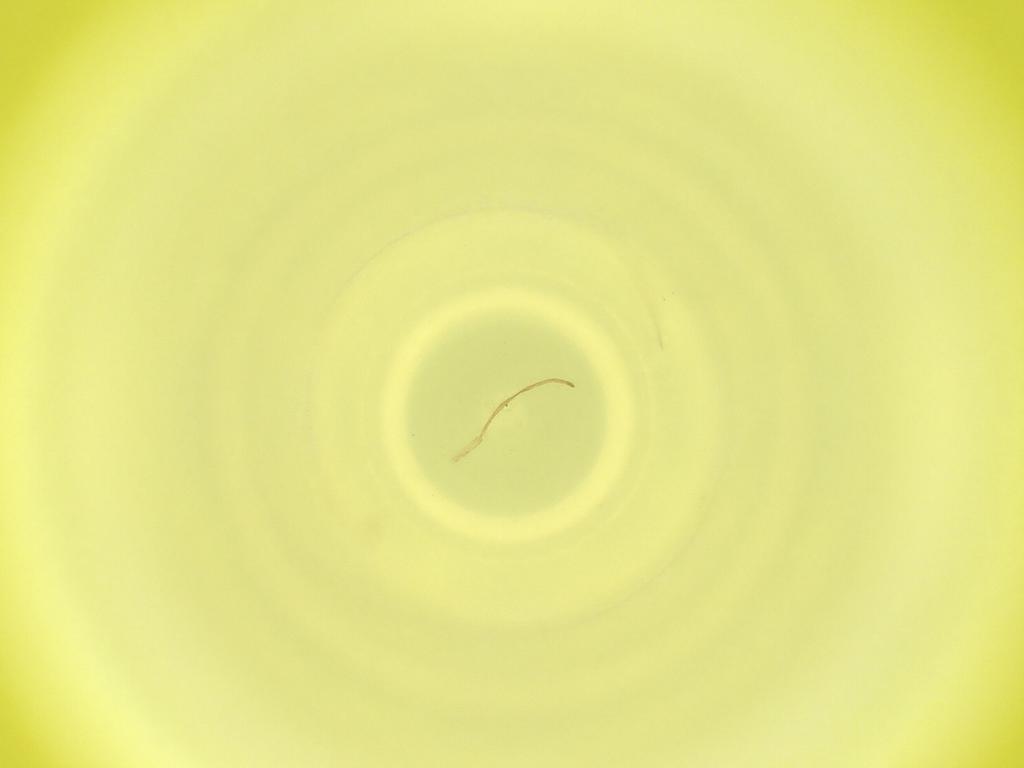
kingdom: Animalia
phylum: Arthropoda
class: Insecta
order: Diptera
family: Cecidomyiidae
